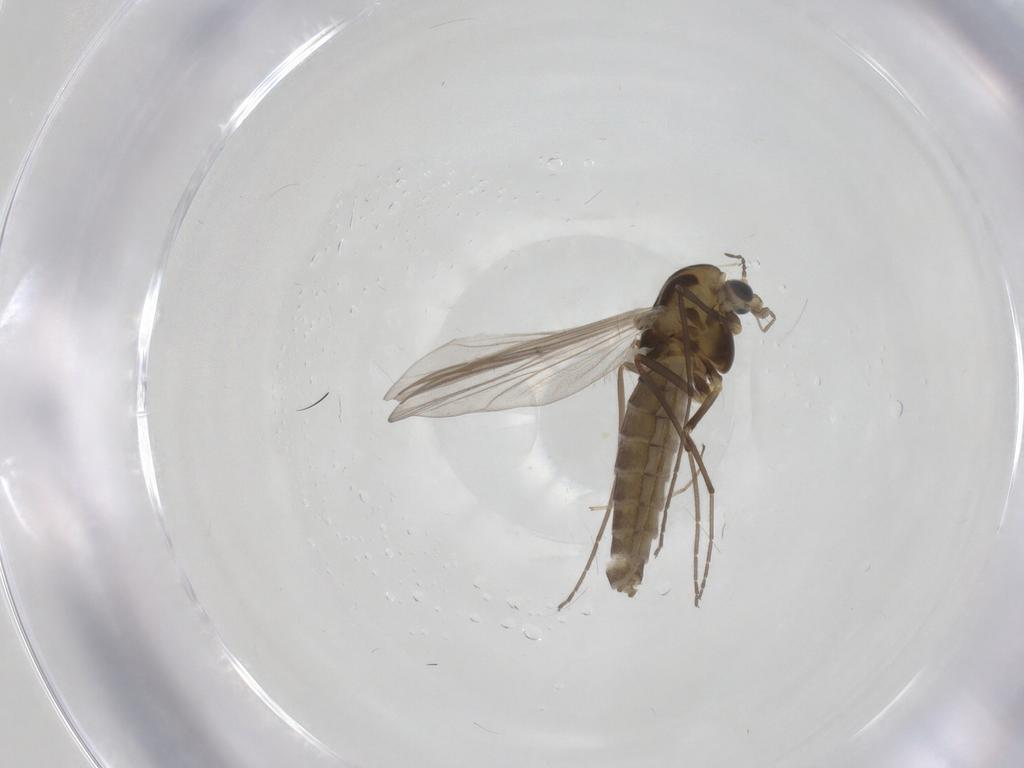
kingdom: Animalia
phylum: Arthropoda
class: Insecta
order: Diptera
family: Chironomidae
